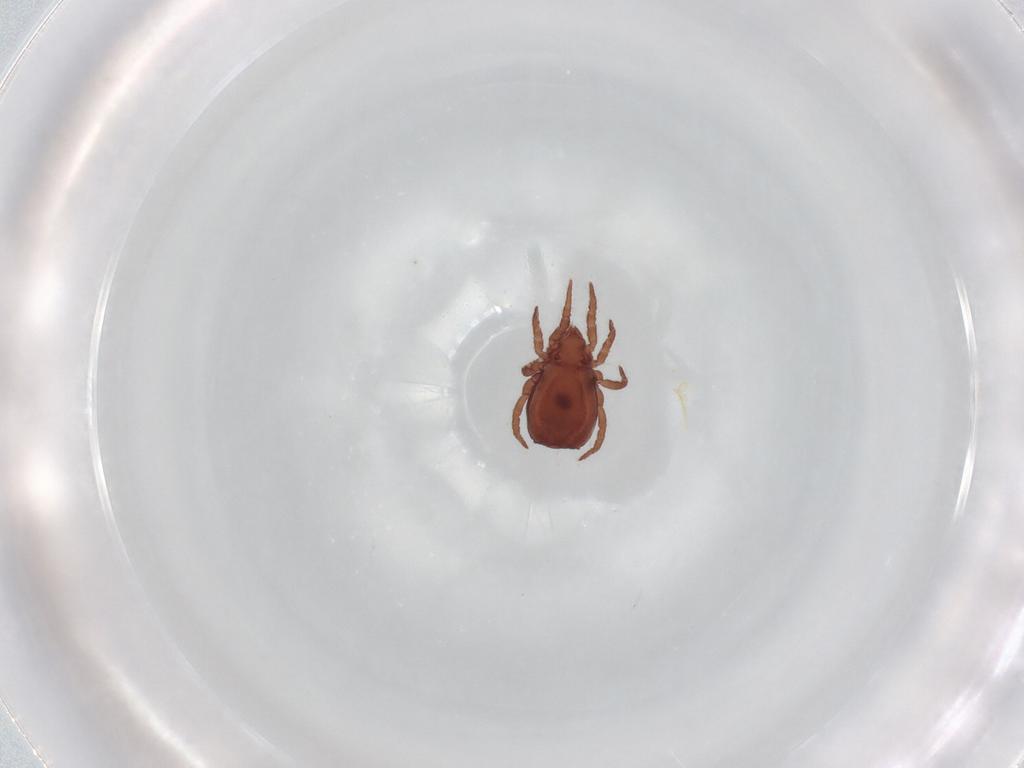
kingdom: Animalia
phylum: Arthropoda
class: Arachnida
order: Sarcoptiformes
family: Nothridae
